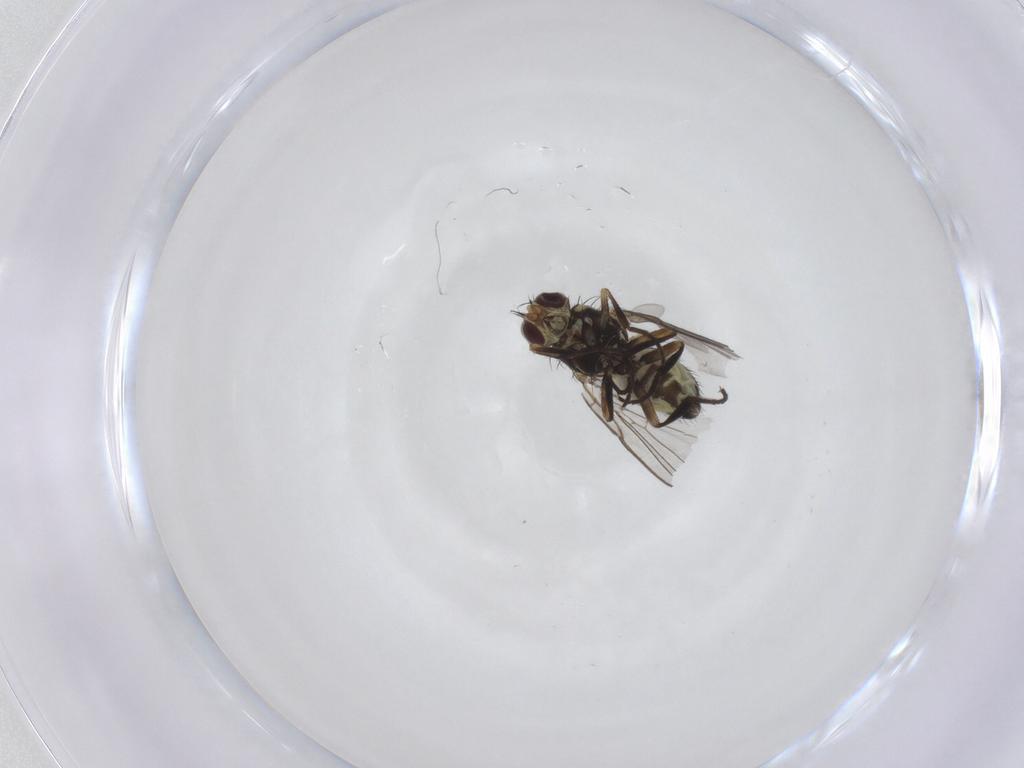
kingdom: Animalia
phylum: Arthropoda
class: Insecta
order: Diptera
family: Agromyzidae
